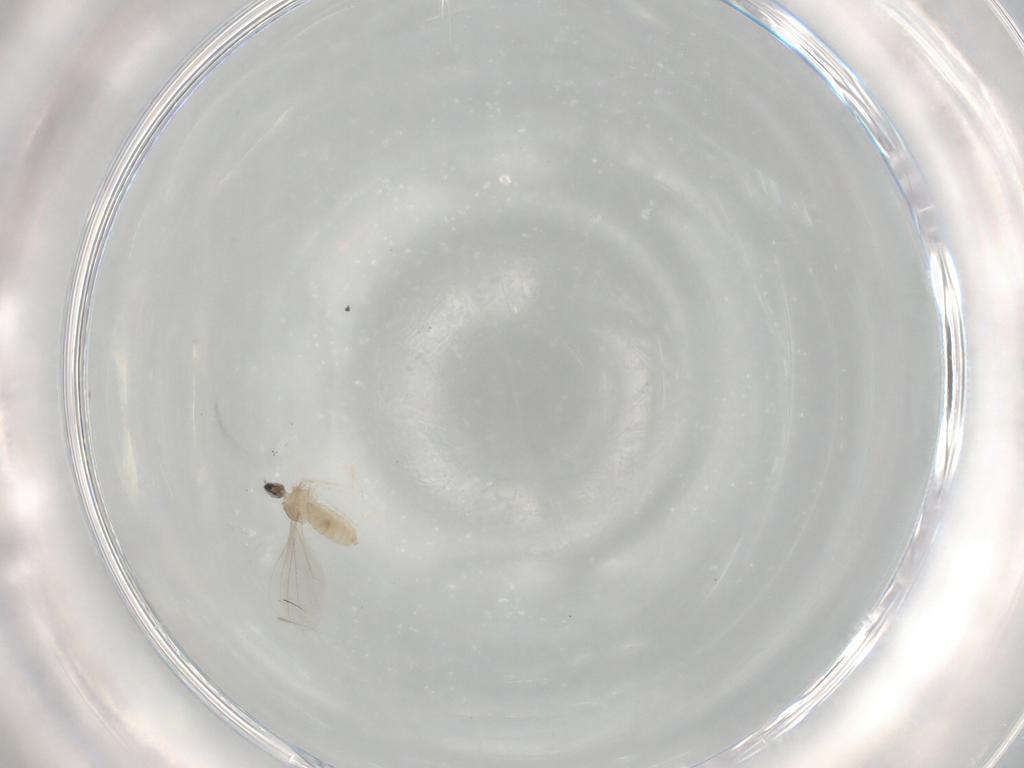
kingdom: Animalia
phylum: Arthropoda
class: Insecta
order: Diptera
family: Cecidomyiidae
